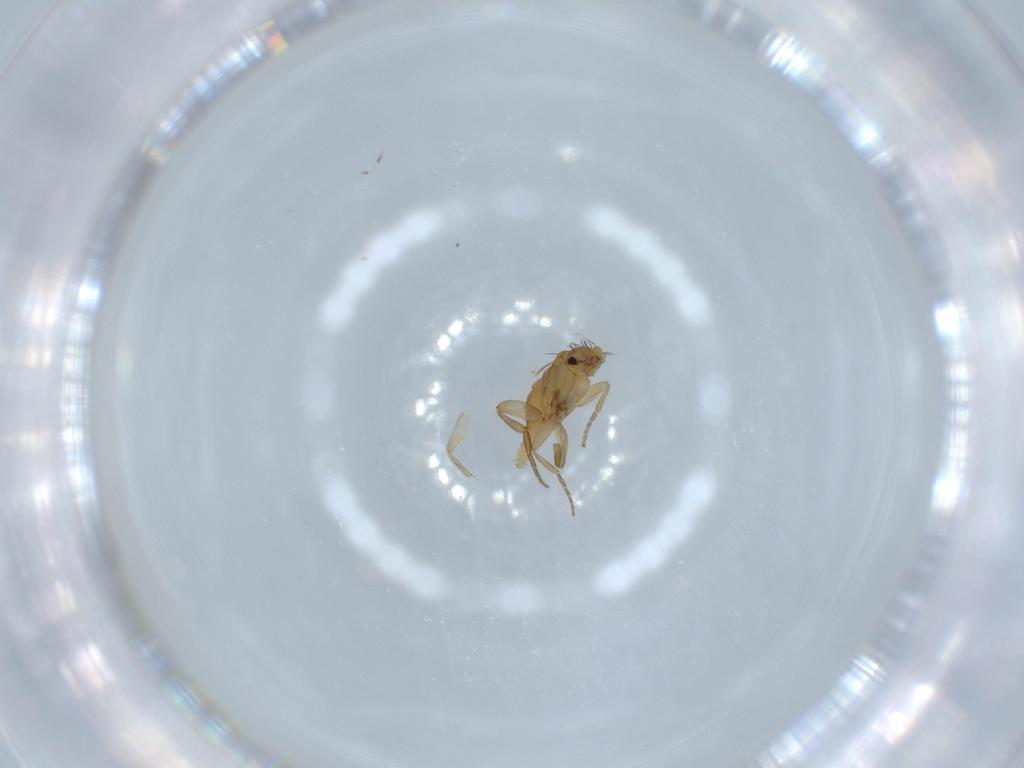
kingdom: Animalia
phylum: Arthropoda
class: Insecta
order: Diptera
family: Phoridae
